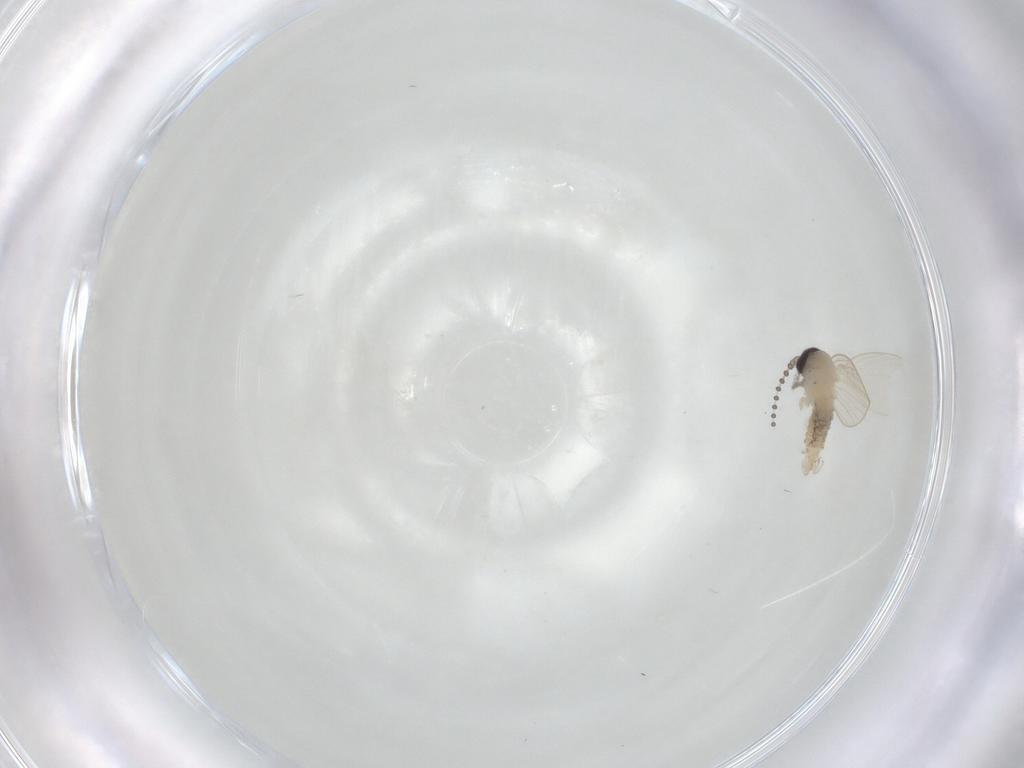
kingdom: Animalia
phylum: Arthropoda
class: Insecta
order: Diptera
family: Psychodidae
